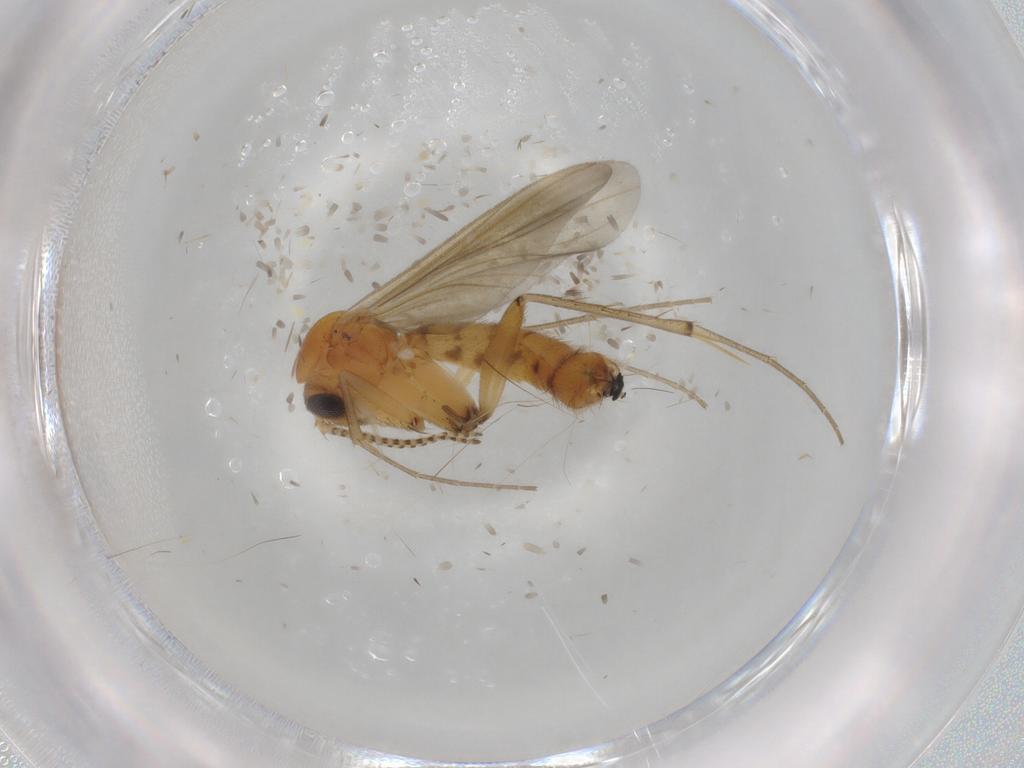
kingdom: Animalia
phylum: Arthropoda
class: Insecta
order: Diptera
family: Mycetophilidae
